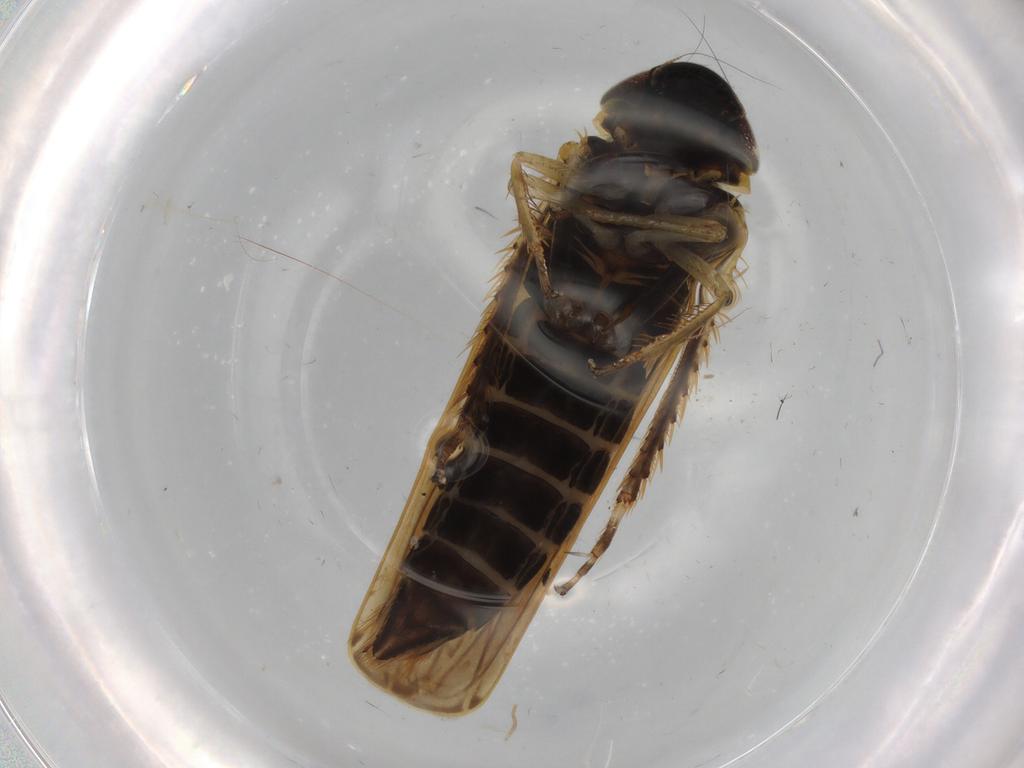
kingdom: Animalia
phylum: Arthropoda
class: Insecta
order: Hemiptera
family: Cicadellidae
